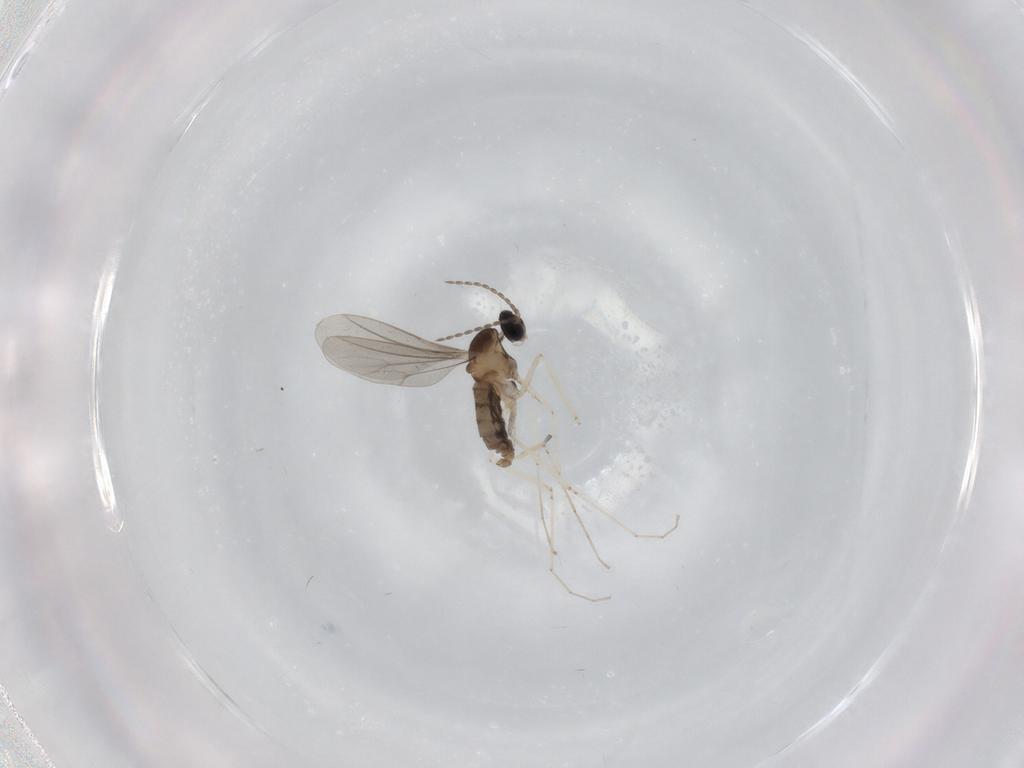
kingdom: Animalia
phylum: Arthropoda
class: Insecta
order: Diptera
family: Cecidomyiidae
